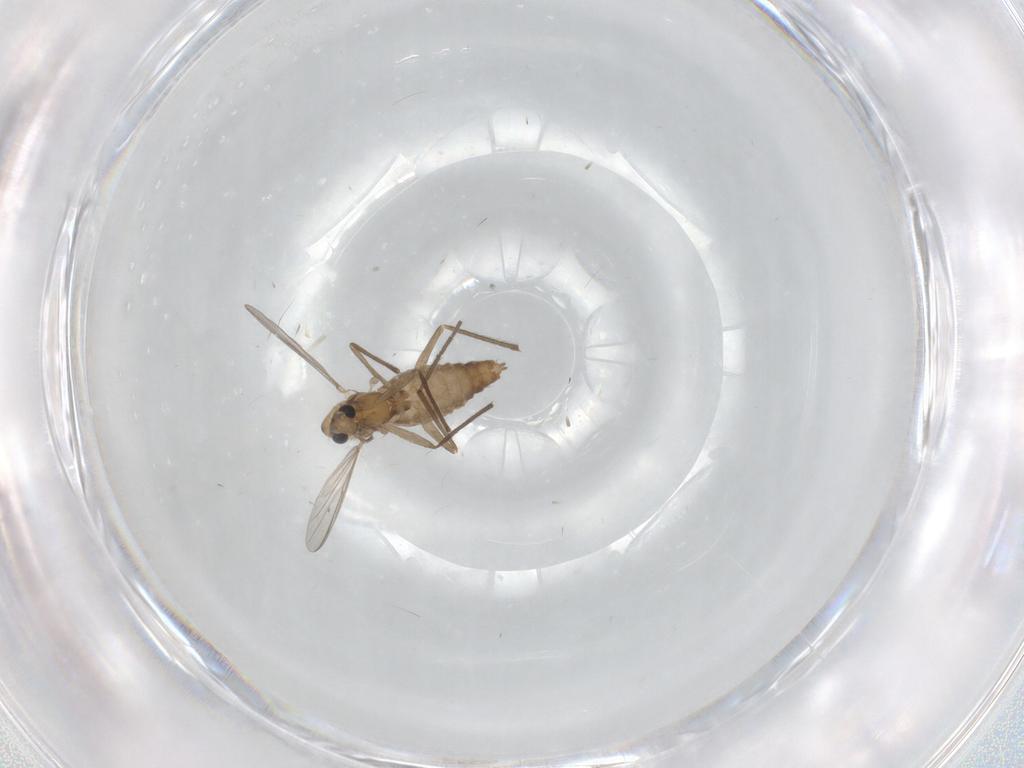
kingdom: Animalia
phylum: Arthropoda
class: Insecta
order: Diptera
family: Chironomidae
